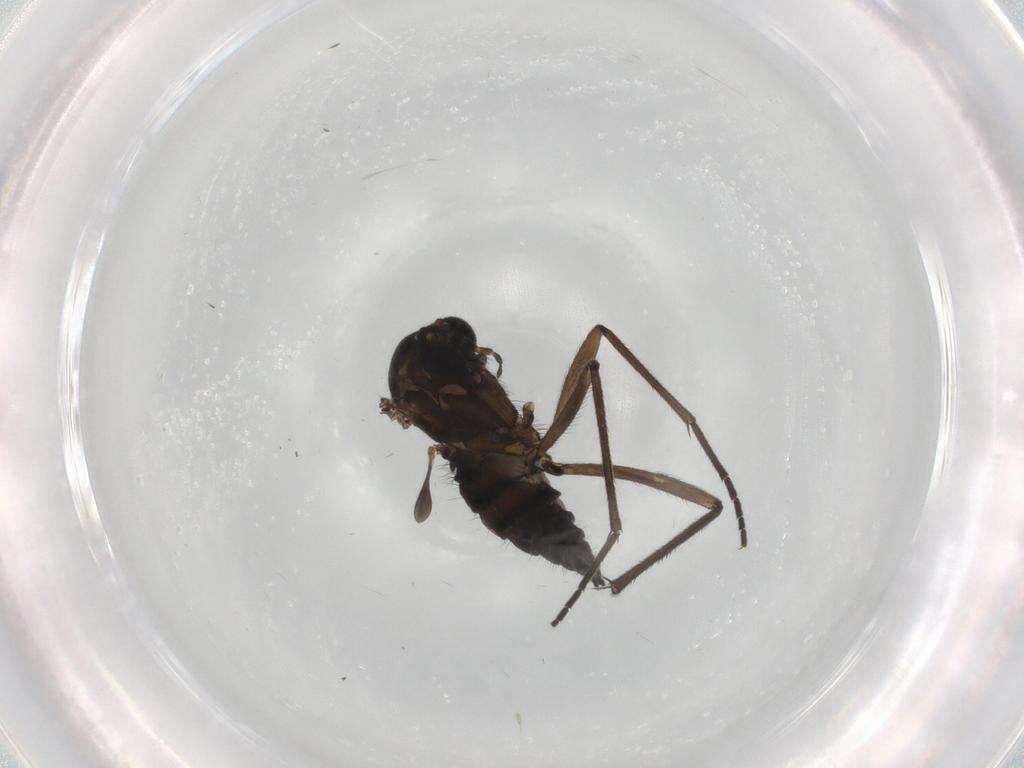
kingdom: Animalia
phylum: Arthropoda
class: Insecta
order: Diptera
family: Sciaridae
